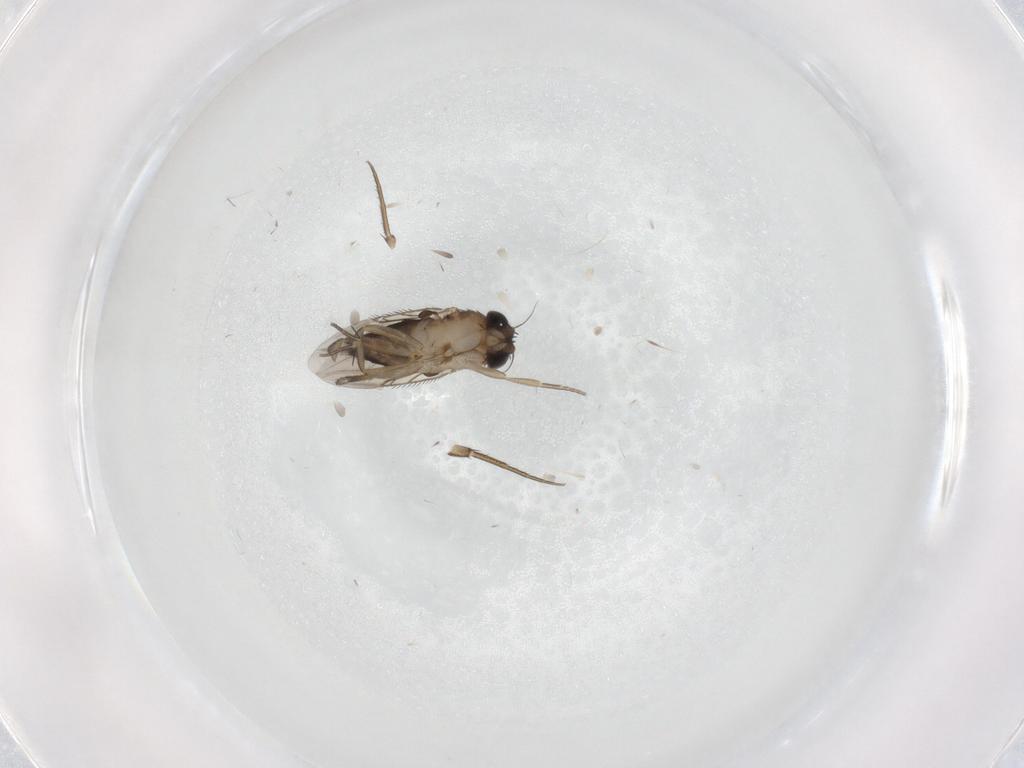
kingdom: Animalia
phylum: Arthropoda
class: Insecta
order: Diptera
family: Phoridae
